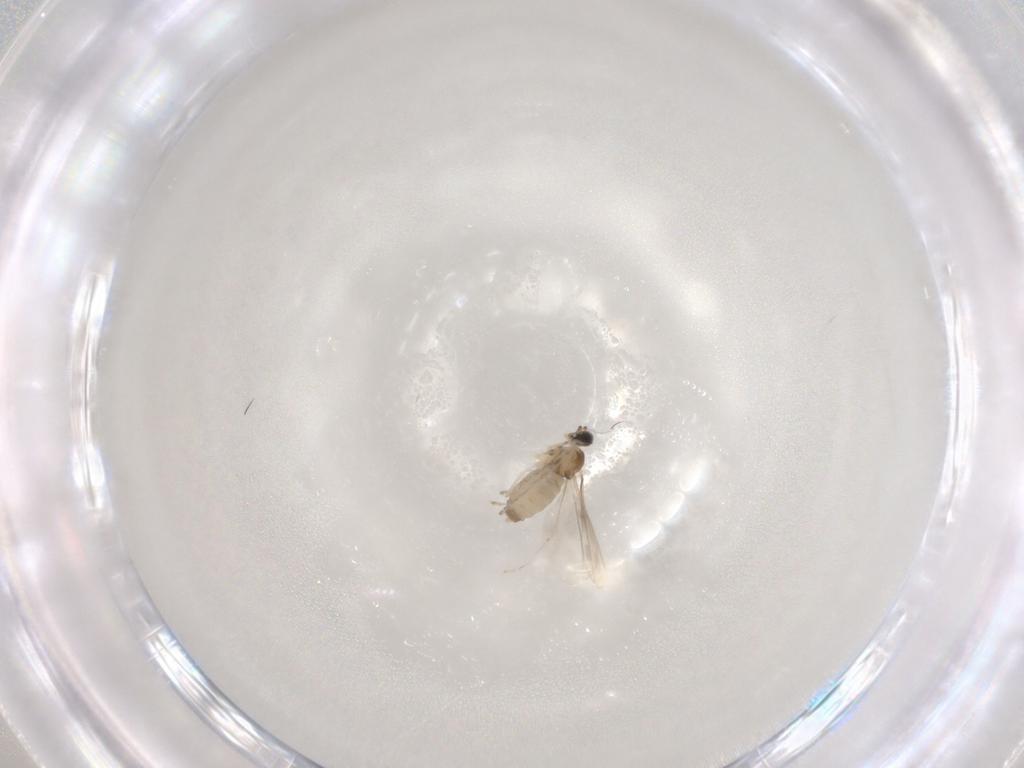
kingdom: Animalia
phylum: Arthropoda
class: Insecta
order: Diptera
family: Cecidomyiidae
